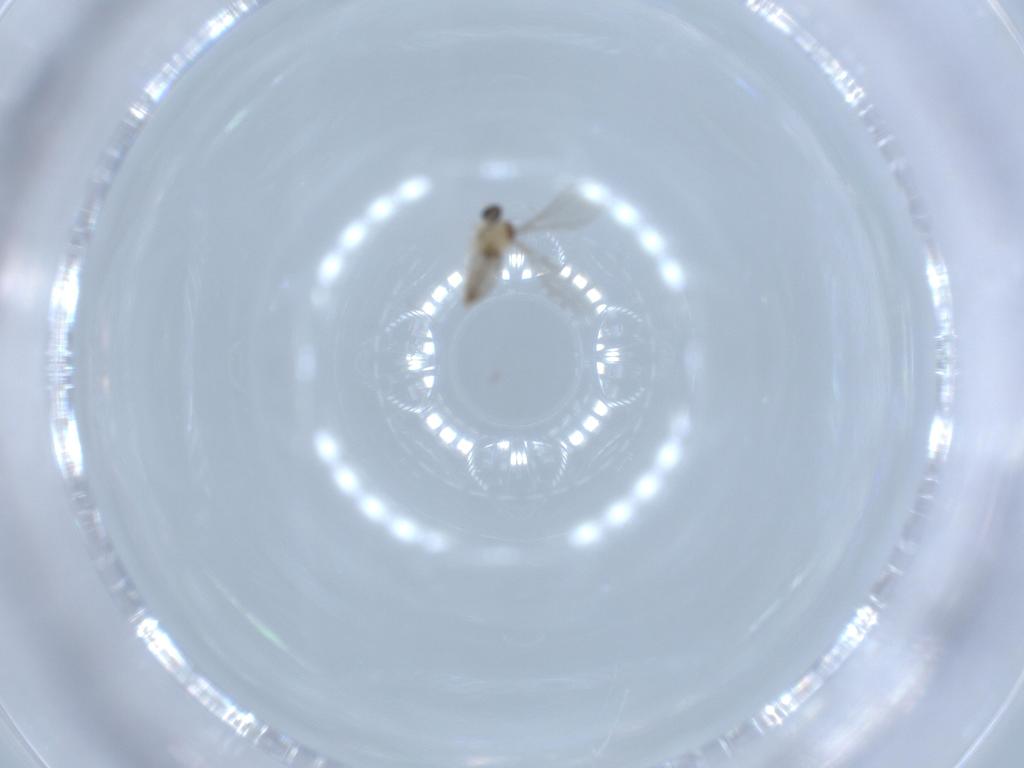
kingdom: Animalia
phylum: Arthropoda
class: Insecta
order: Diptera
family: Cecidomyiidae
